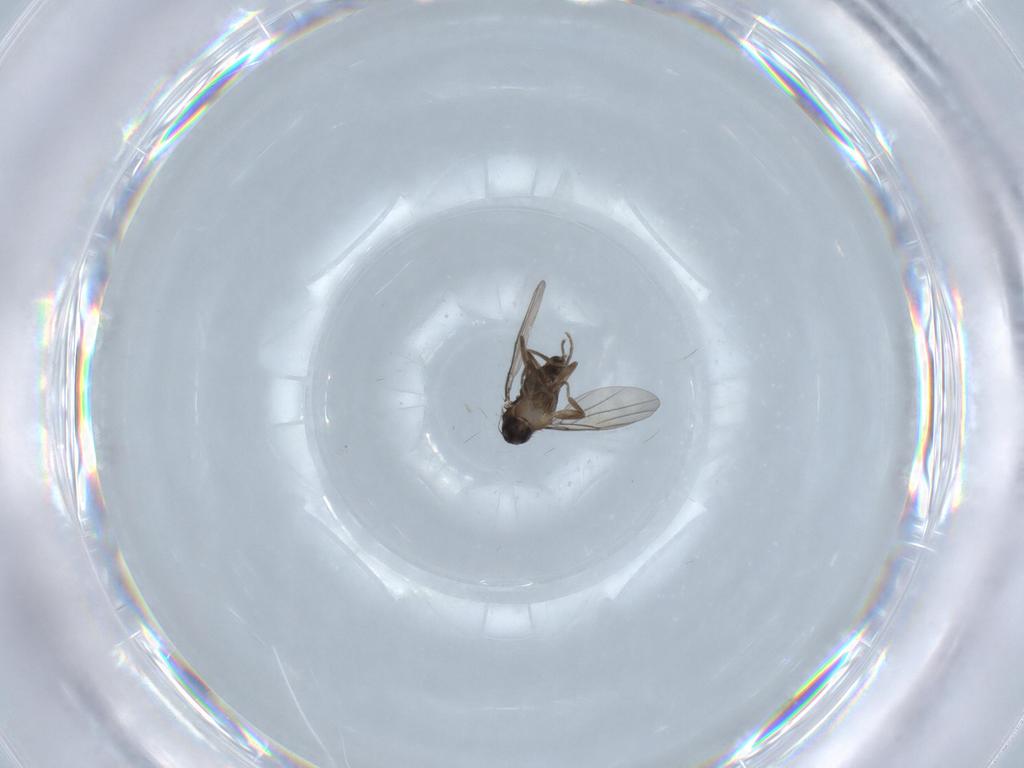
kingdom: Animalia
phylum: Arthropoda
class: Insecta
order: Diptera
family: Phoridae
